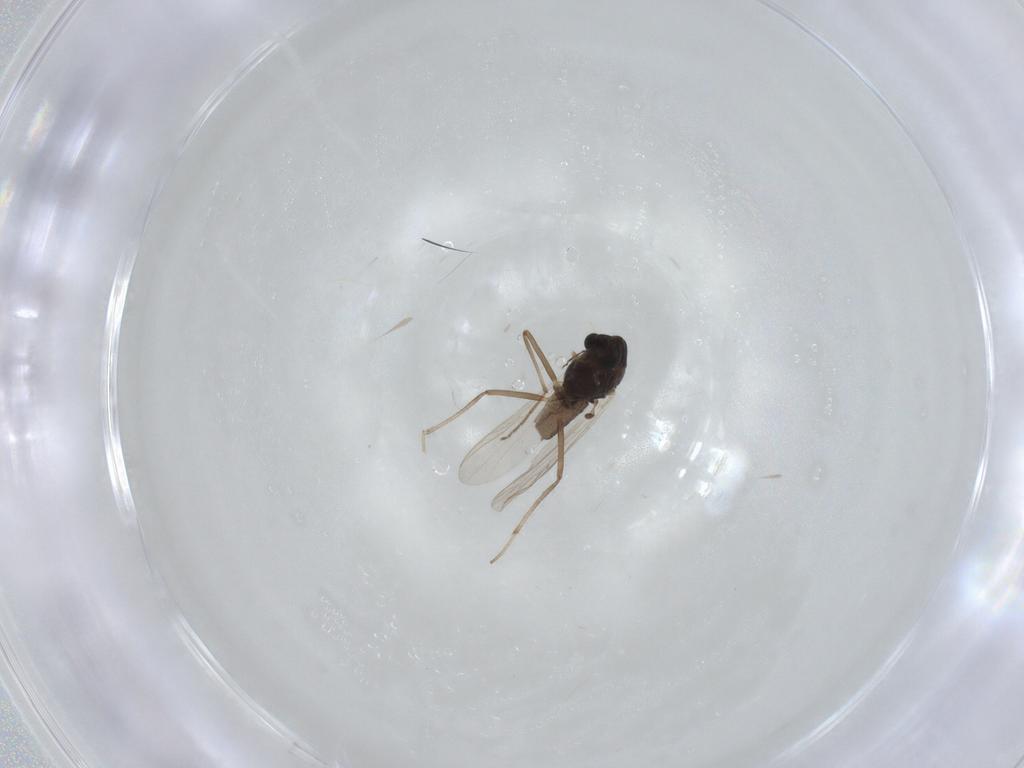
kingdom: Animalia
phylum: Arthropoda
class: Insecta
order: Diptera
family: Chironomidae
